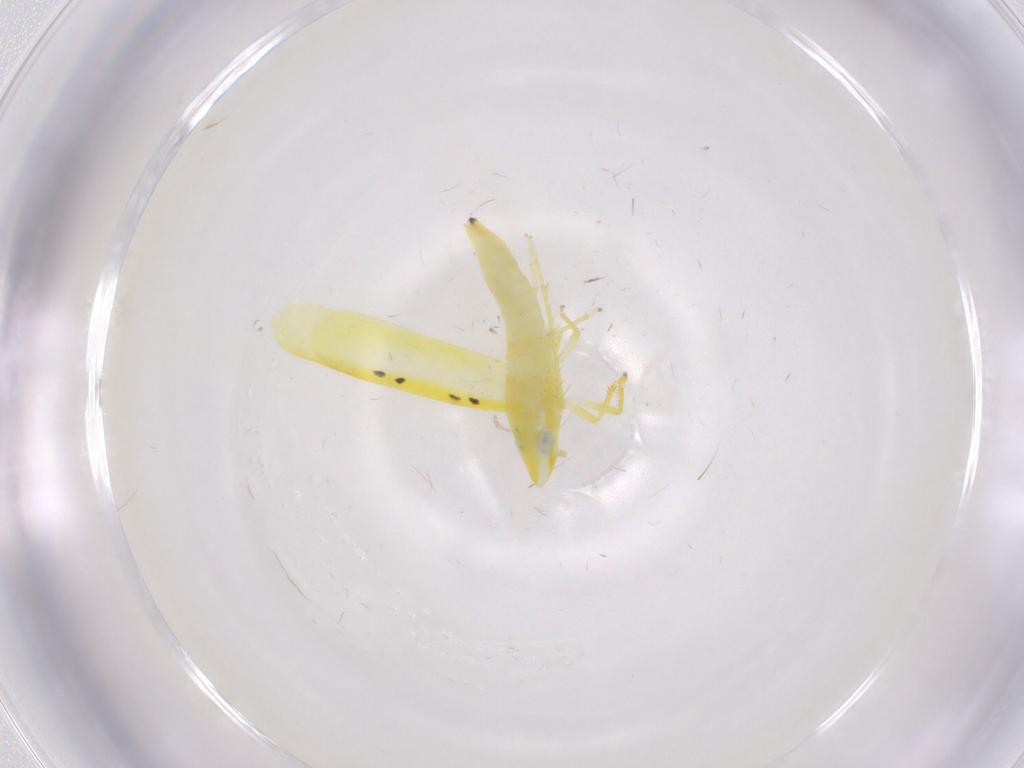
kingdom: Animalia
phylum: Arthropoda
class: Insecta
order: Hemiptera
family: Cicadellidae
